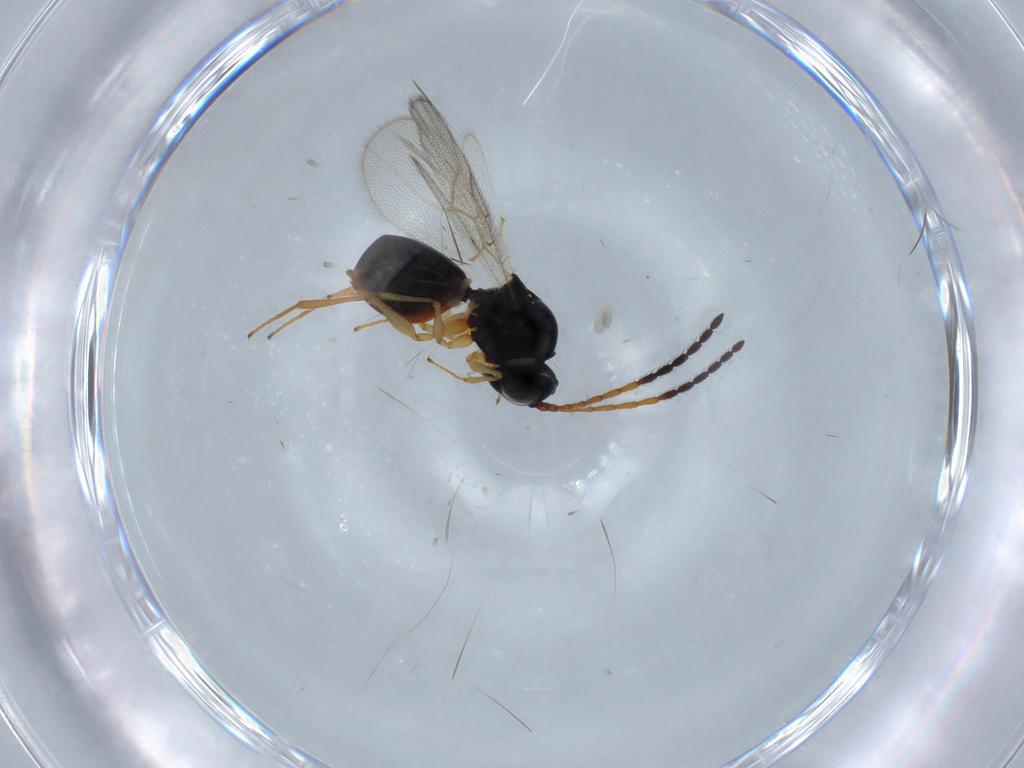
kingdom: Animalia
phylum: Arthropoda
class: Insecta
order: Hymenoptera
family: Figitidae
